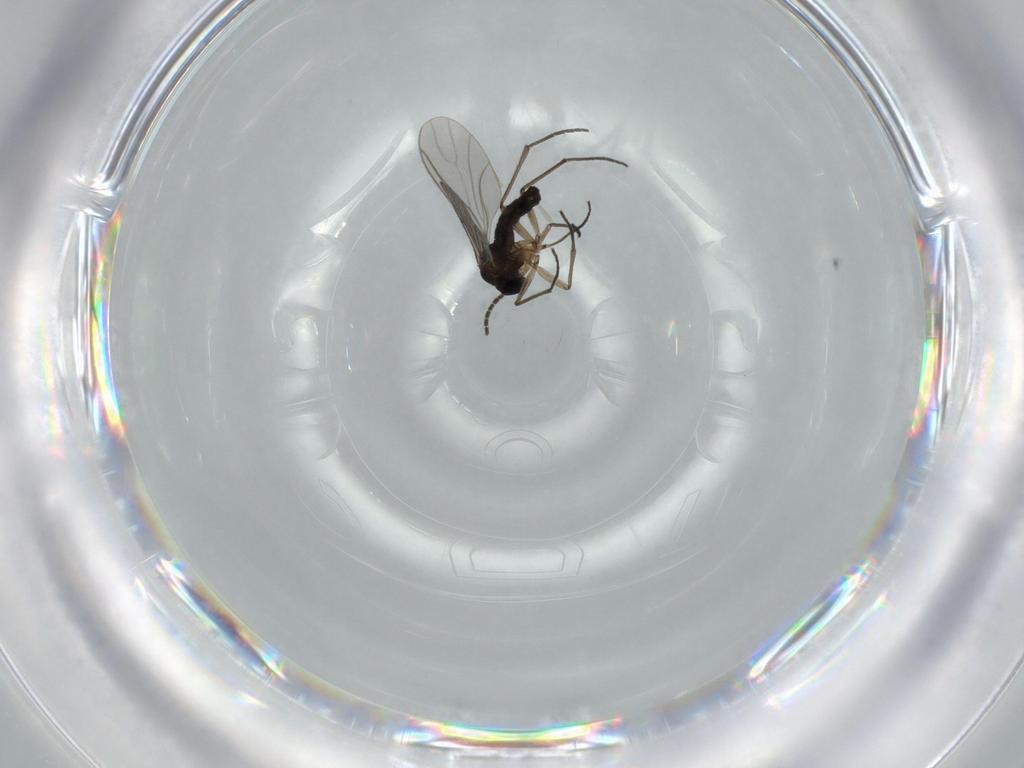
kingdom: Animalia
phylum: Arthropoda
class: Insecta
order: Diptera
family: Sciaridae
